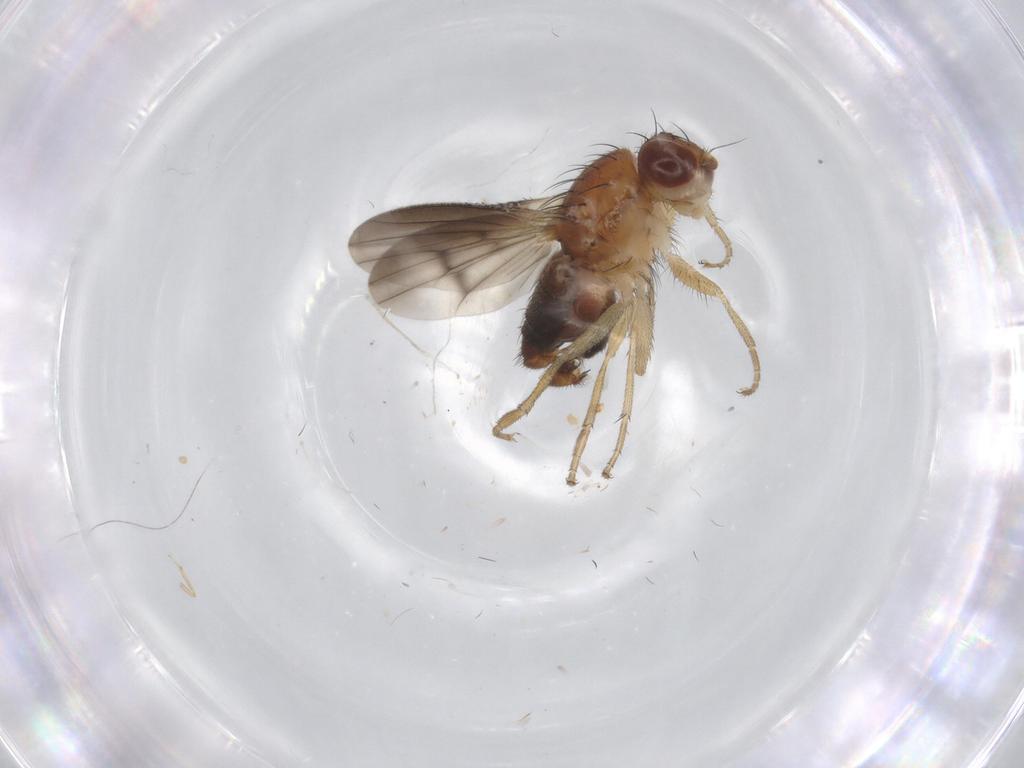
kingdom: Animalia
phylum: Arthropoda
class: Insecta
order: Diptera
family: Heleomyzidae
